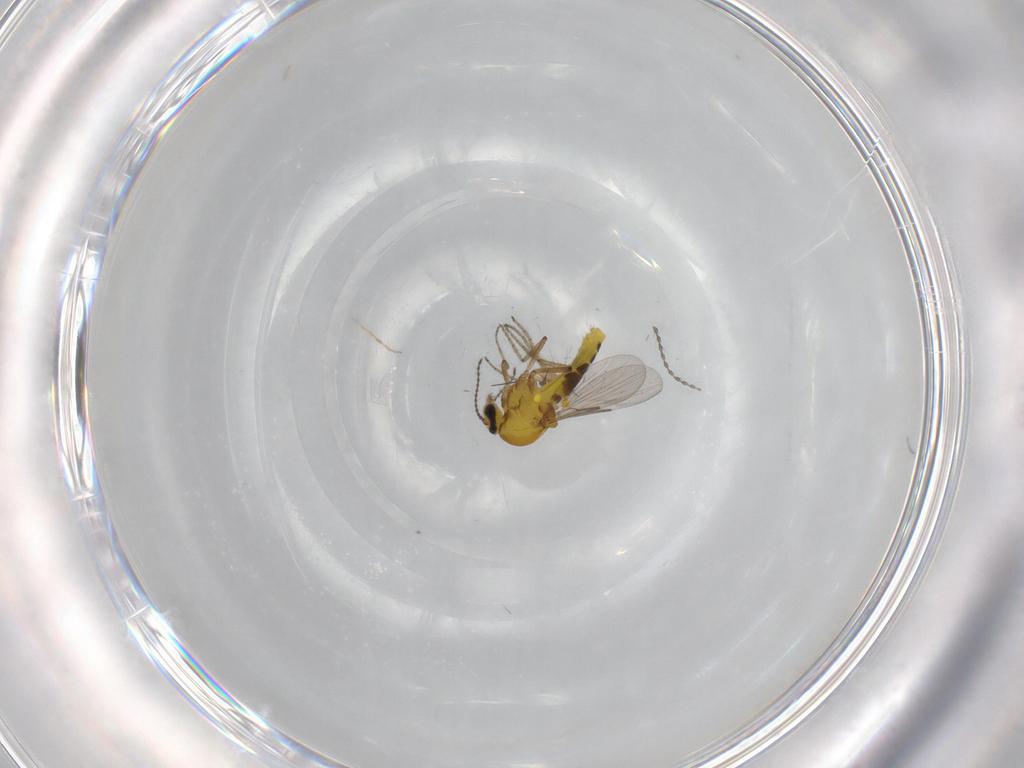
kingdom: Animalia
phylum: Arthropoda
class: Insecta
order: Diptera
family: Ceratopogonidae
